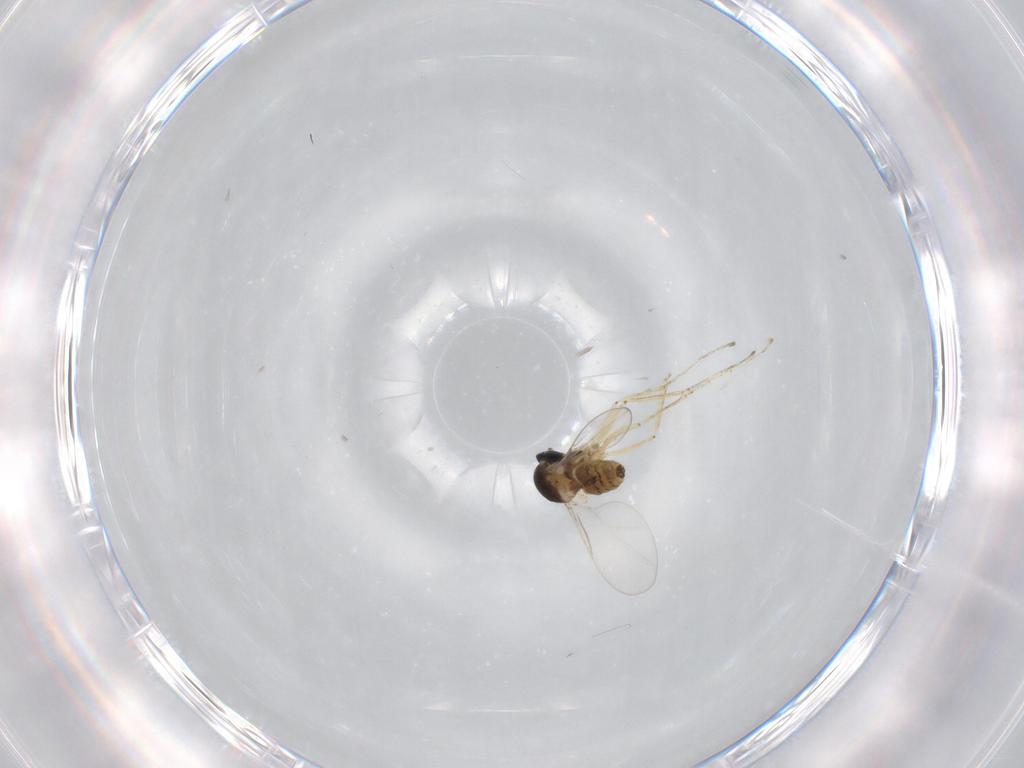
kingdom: Animalia
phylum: Arthropoda
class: Insecta
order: Diptera
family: Cecidomyiidae
